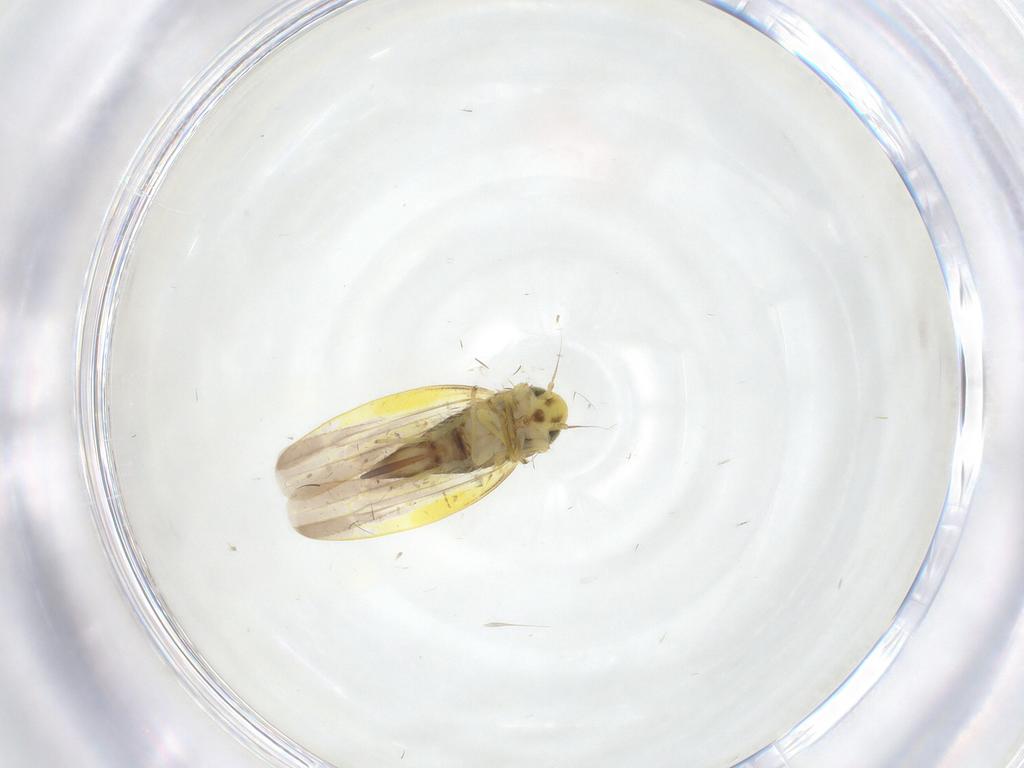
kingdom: Animalia
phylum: Arthropoda
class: Insecta
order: Hemiptera
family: Cicadellidae
